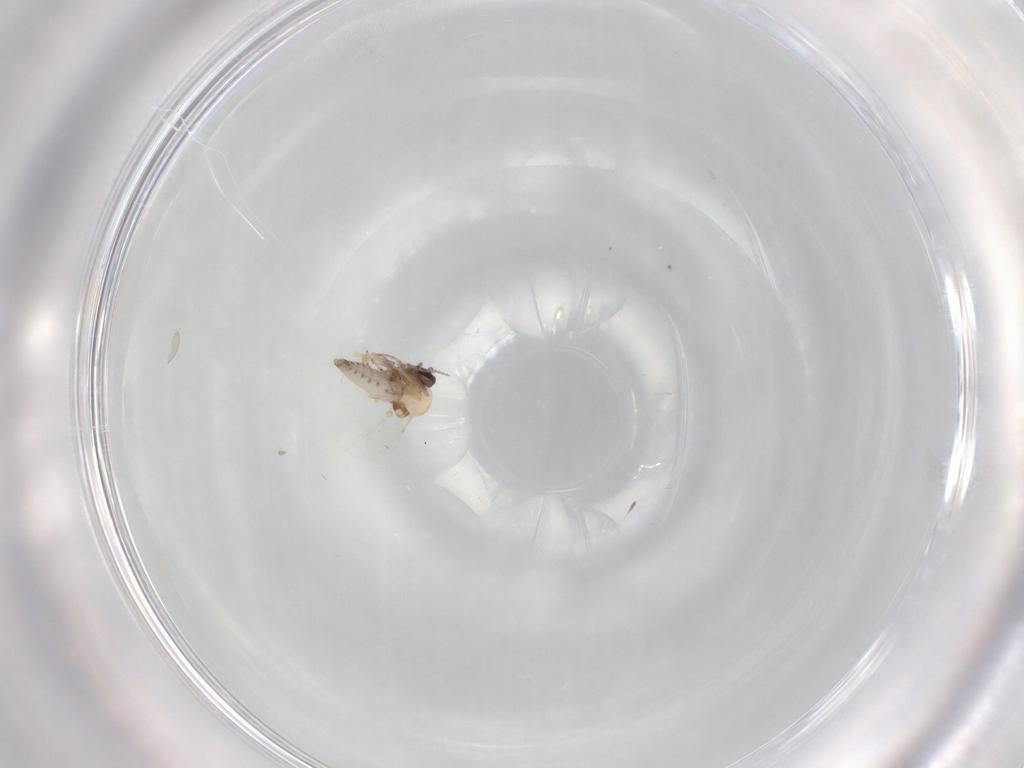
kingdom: Animalia
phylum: Arthropoda
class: Insecta
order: Diptera
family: Ceratopogonidae
